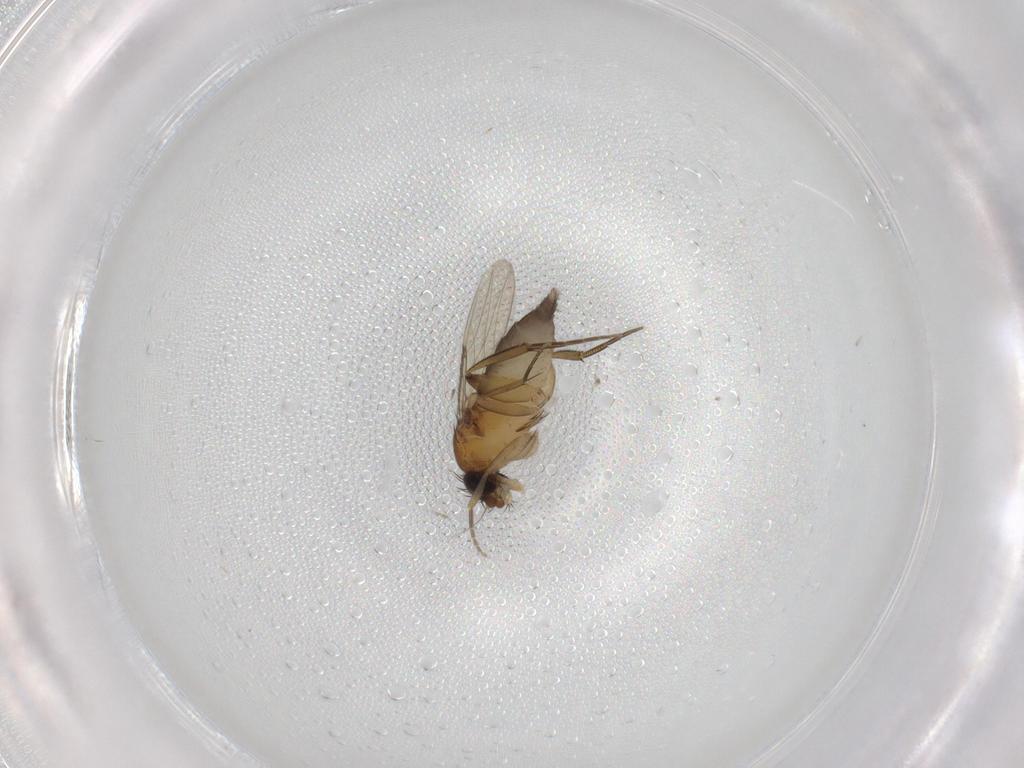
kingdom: Animalia
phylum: Arthropoda
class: Insecta
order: Diptera
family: Phoridae
